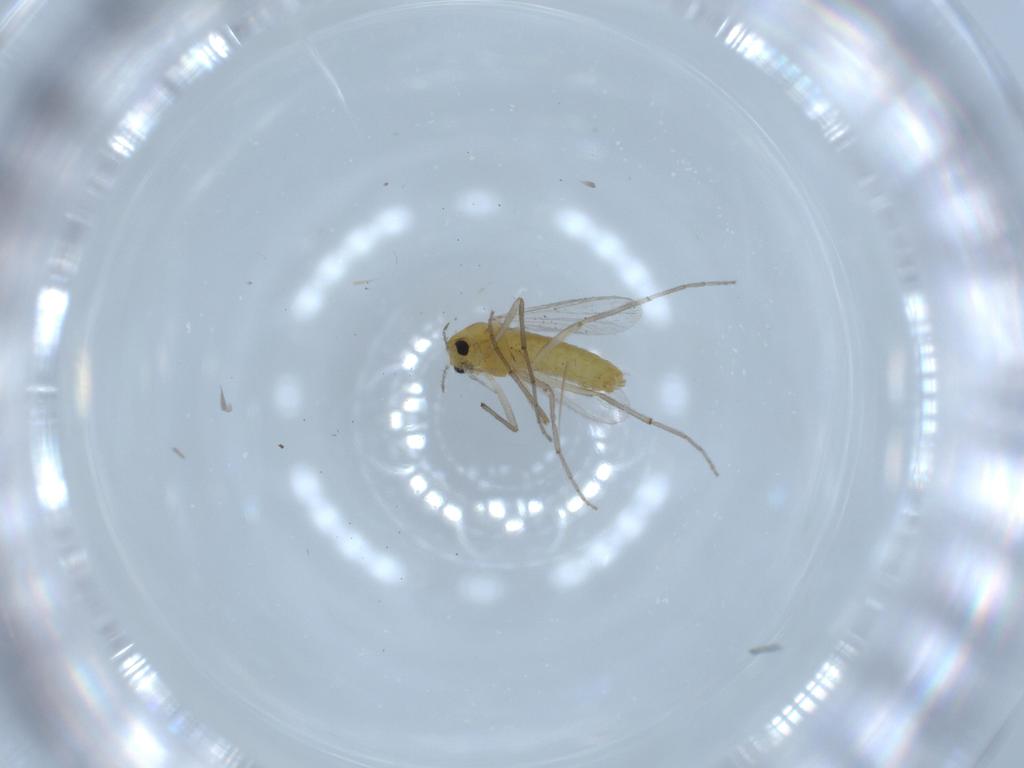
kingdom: Animalia
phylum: Arthropoda
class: Insecta
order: Diptera
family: Chironomidae
